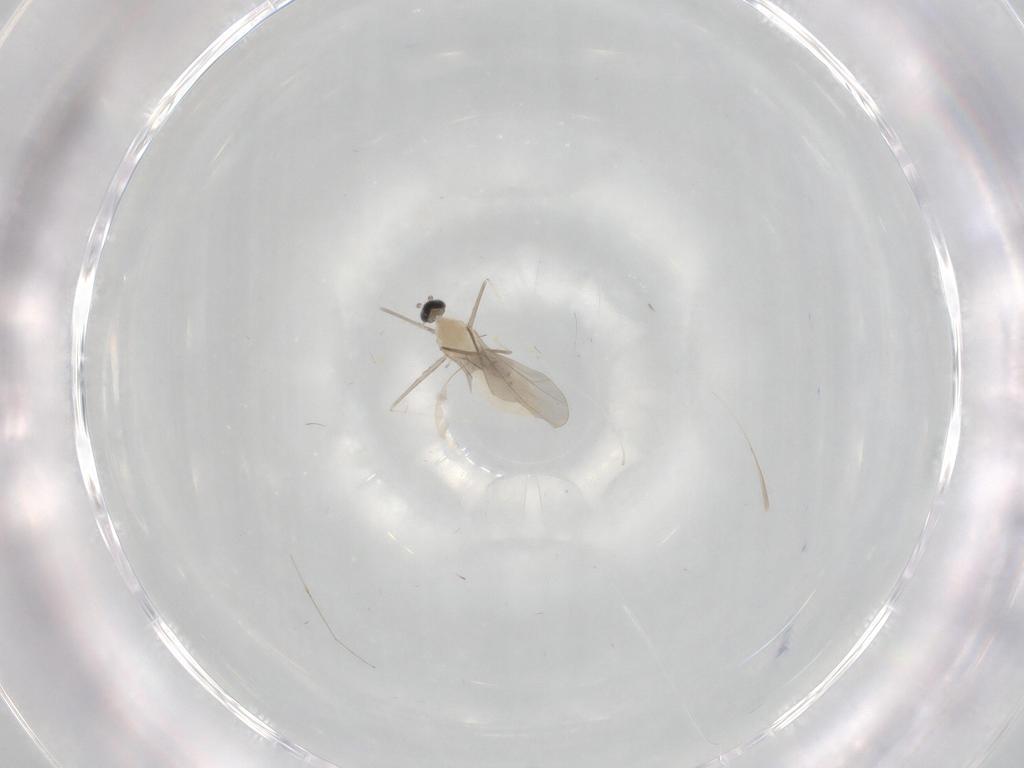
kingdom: Animalia
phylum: Arthropoda
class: Insecta
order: Diptera
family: Cecidomyiidae
